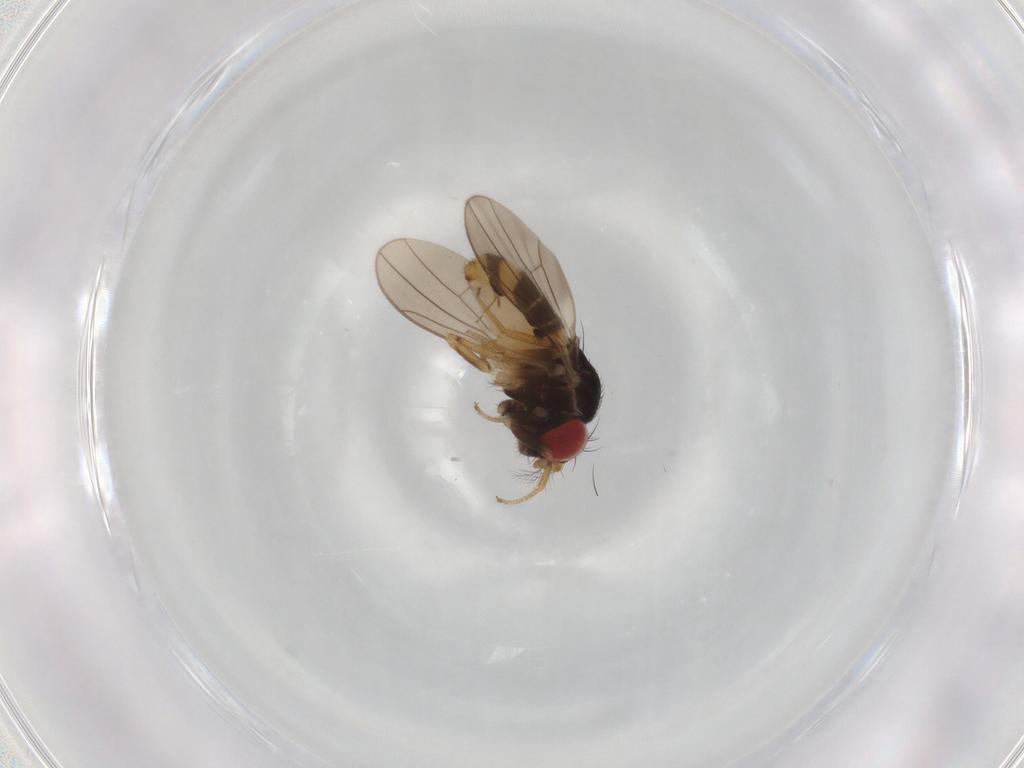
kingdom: Animalia
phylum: Arthropoda
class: Insecta
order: Diptera
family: Drosophilidae
